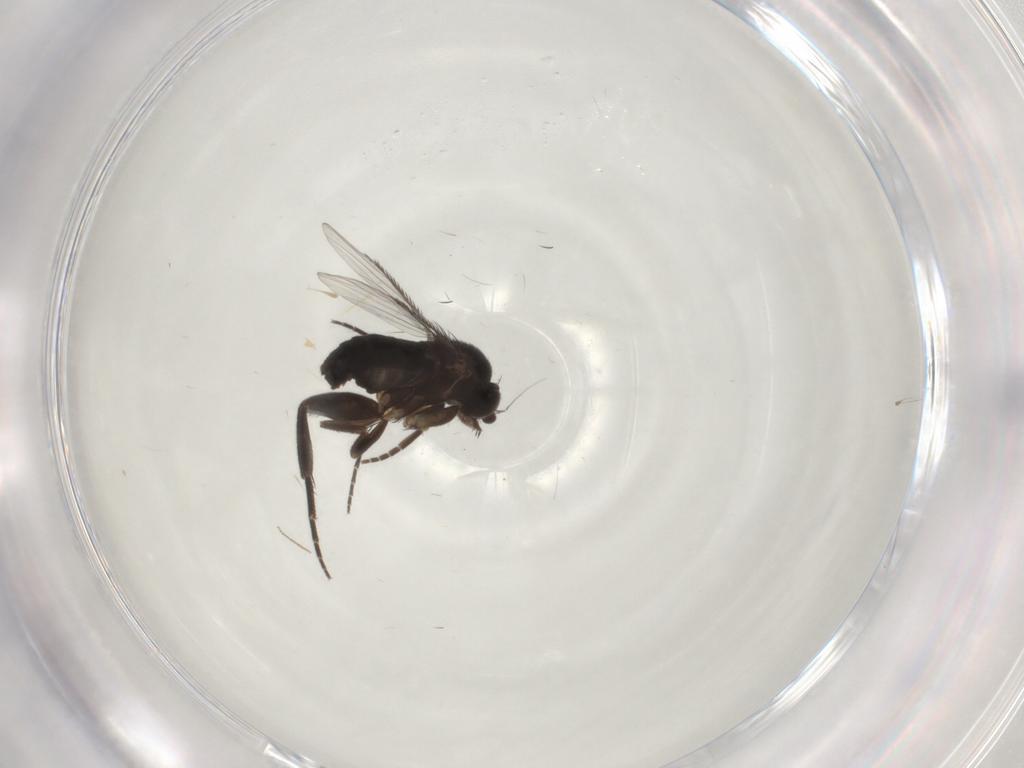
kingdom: Animalia
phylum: Arthropoda
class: Insecta
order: Diptera
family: Phoridae
